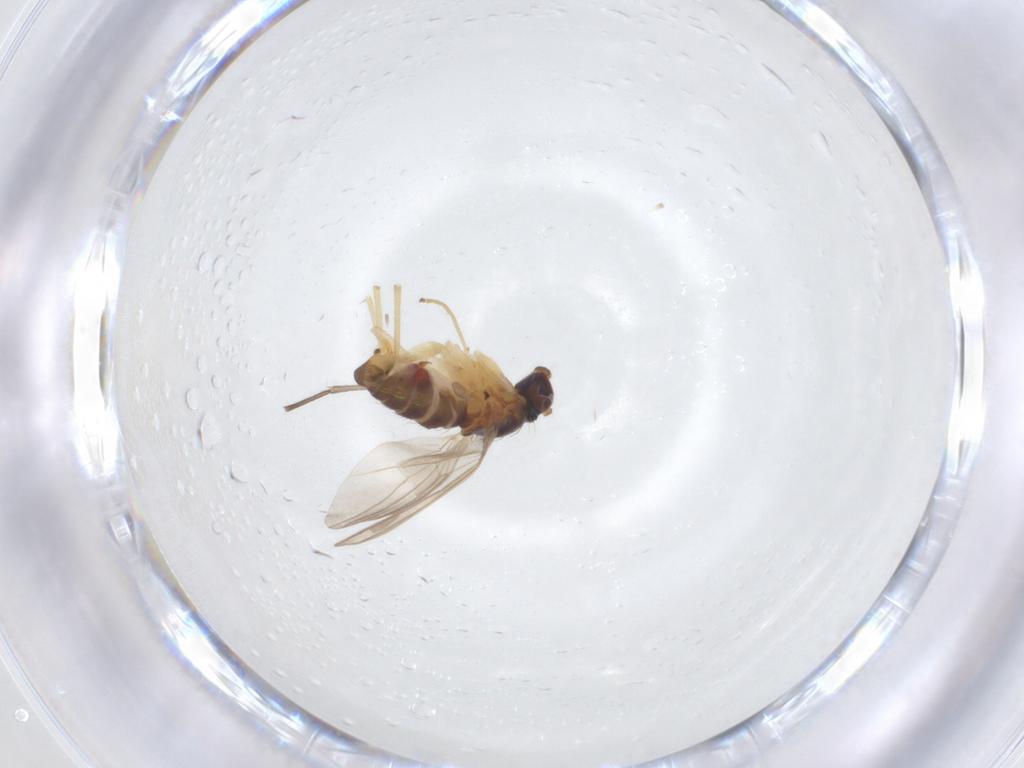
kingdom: Animalia
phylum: Arthropoda
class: Insecta
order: Diptera
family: Dolichopodidae
